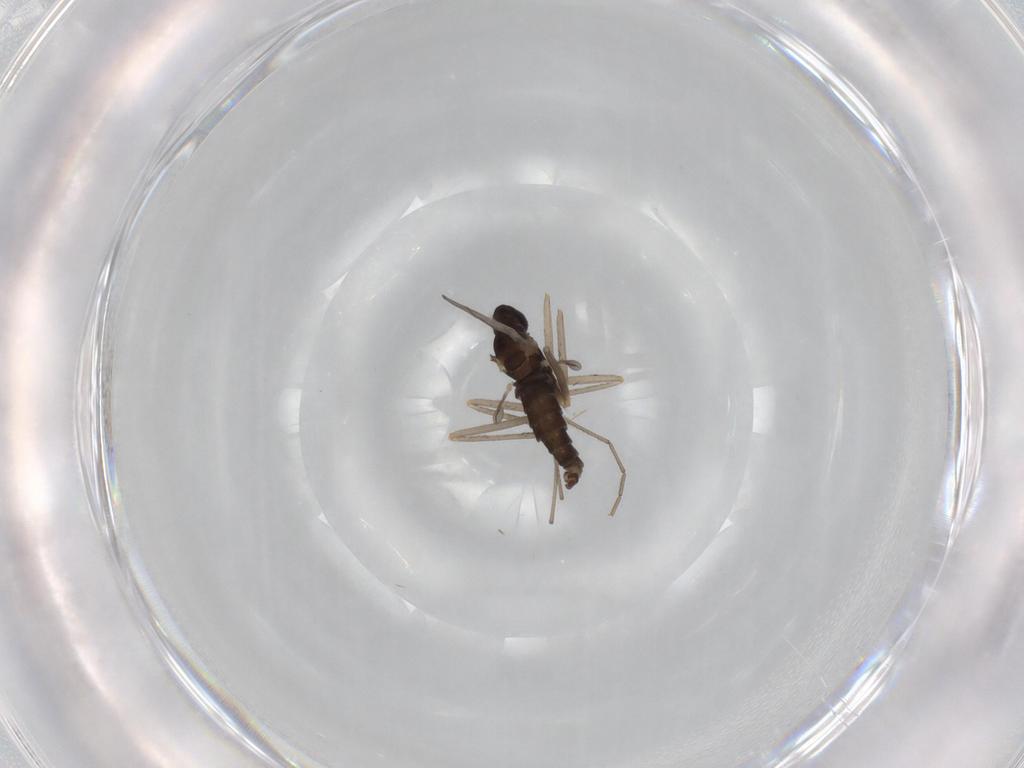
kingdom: Animalia
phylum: Arthropoda
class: Insecta
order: Diptera
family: Cecidomyiidae
